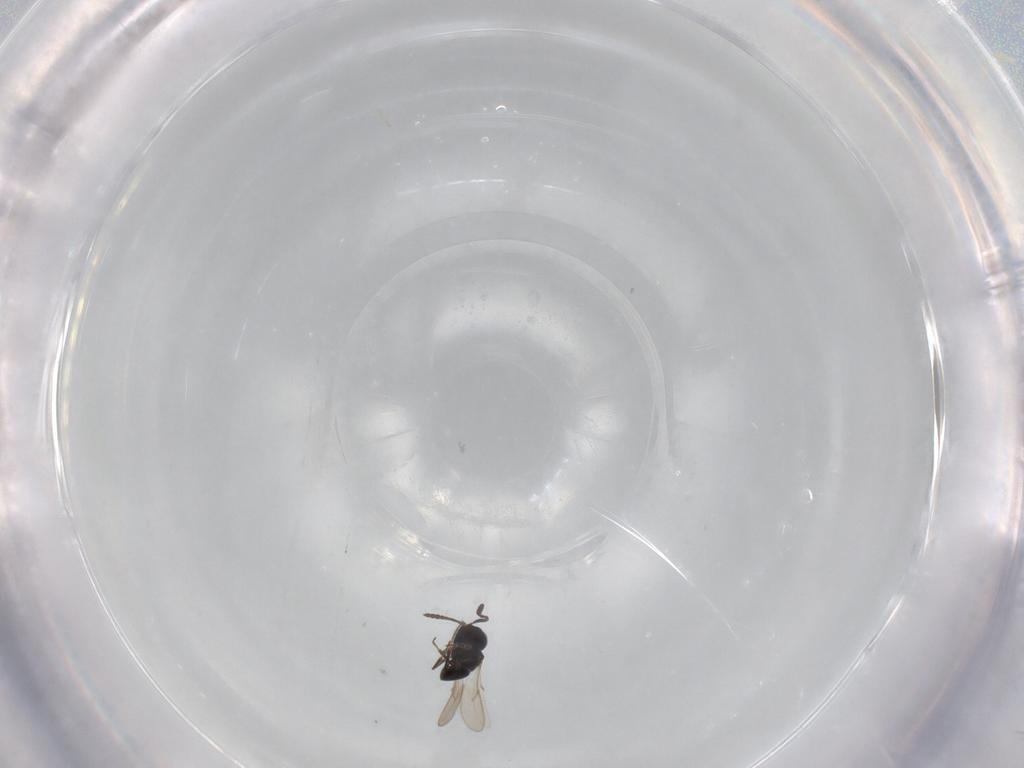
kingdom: Animalia
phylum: Arthropoda
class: Insecta
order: Hymenoptera
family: Scelionidae
